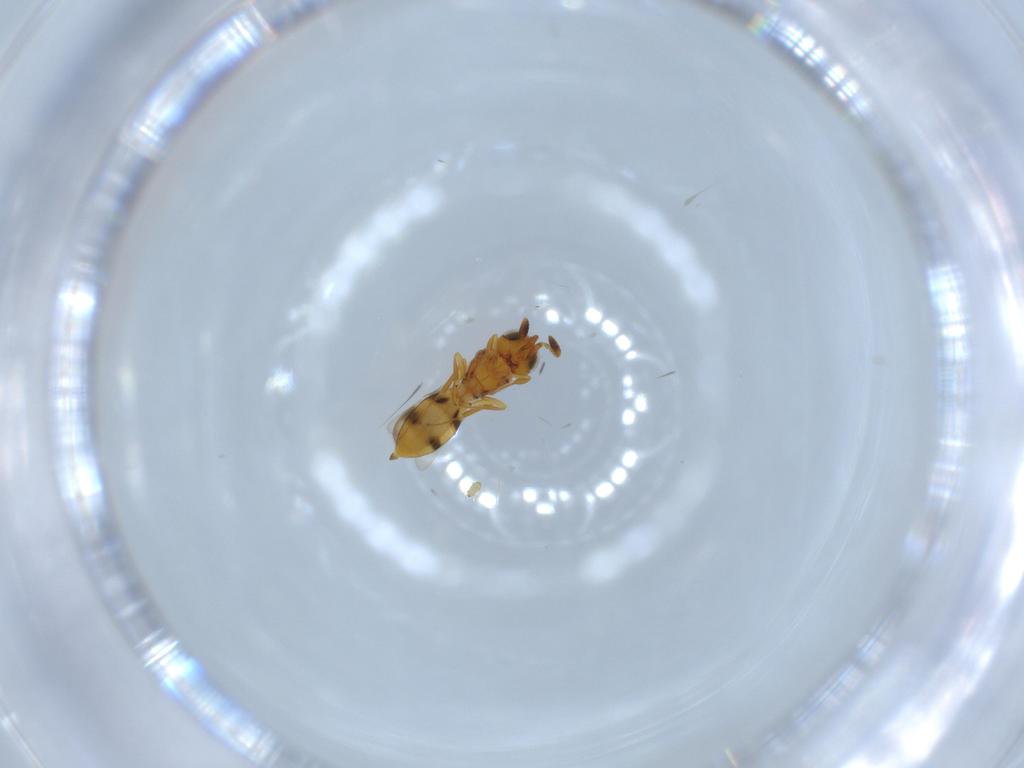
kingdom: Animalia
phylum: Arthropoda
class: Insecta
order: Hymenoptera
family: Scelionidae
